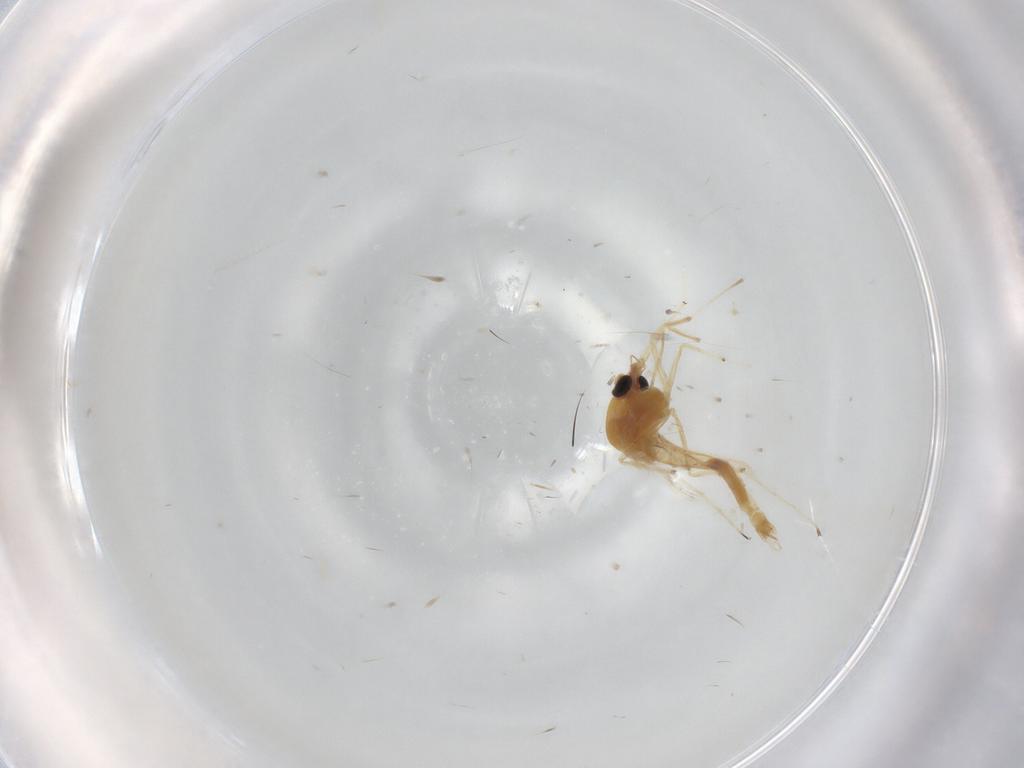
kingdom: Animalia
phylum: Arthropoda
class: Insecta
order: Diptera
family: Chironomidae
